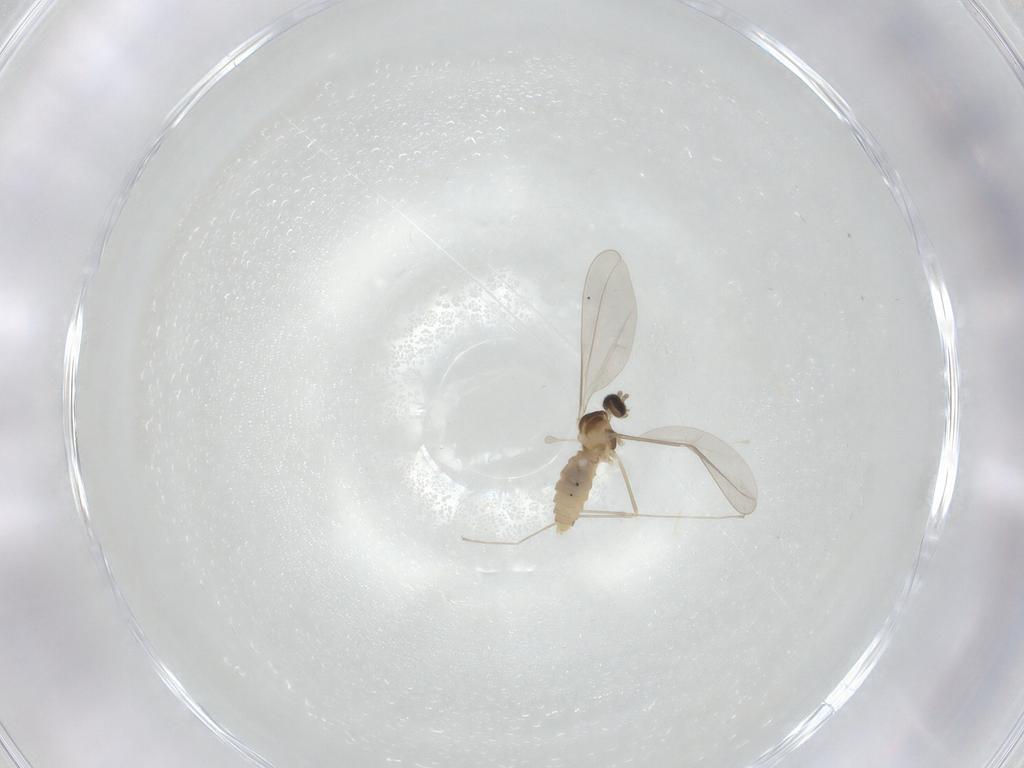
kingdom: Animalia
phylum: Arthropoda
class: Insecta
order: Diptera
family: Cecidomyiidae
